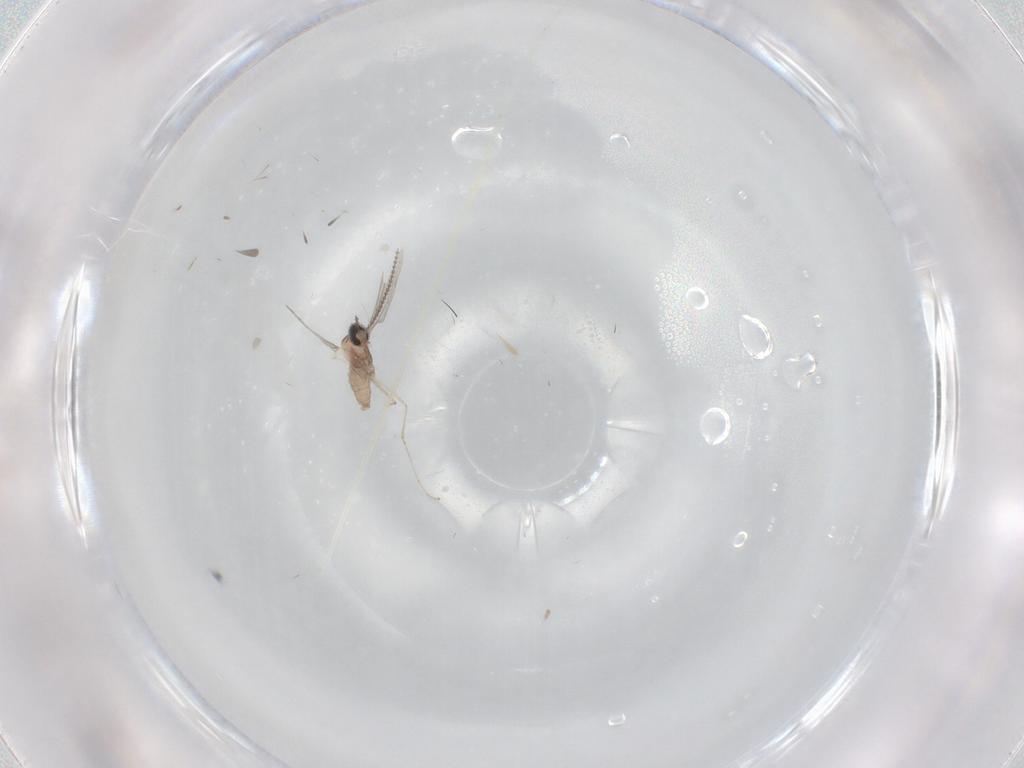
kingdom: Animalia
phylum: Arthropoda
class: Insecta
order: Diptera
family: Cecidomyiidae
